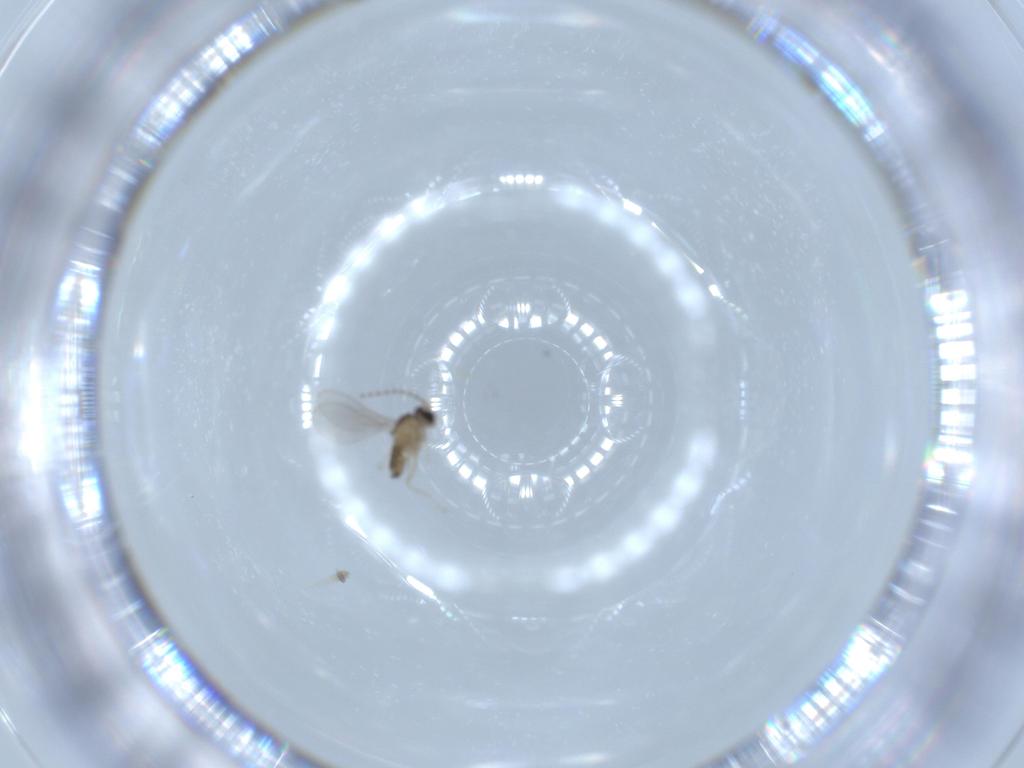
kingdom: Animalia
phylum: Arthropoda
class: Insecta
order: Diptera
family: Cecidomyiidae
